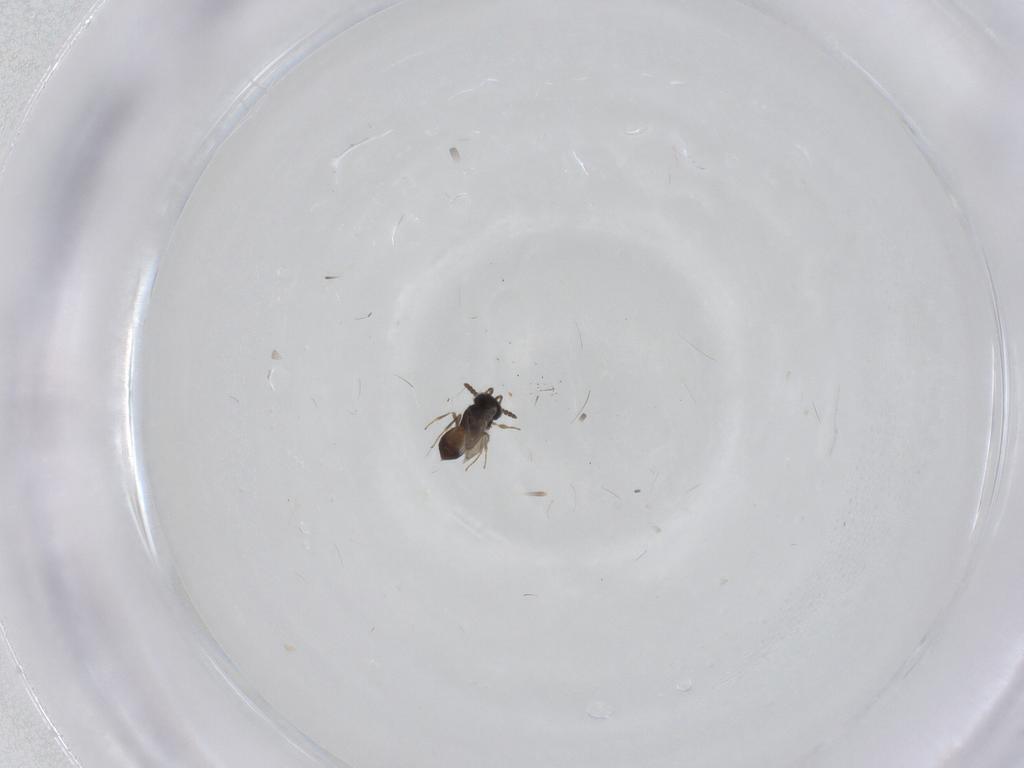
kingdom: Animalia
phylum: Arthropoda
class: Insecta
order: Hymenoptera
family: Scelionidae
